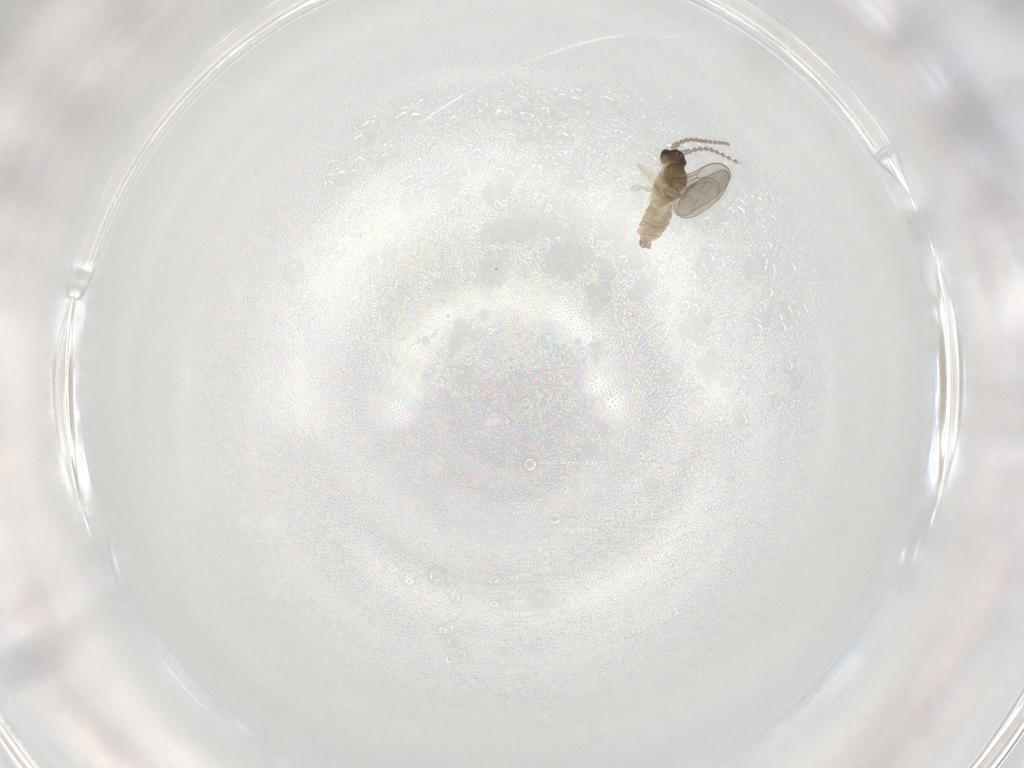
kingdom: Animalia
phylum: Arthropoda
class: Insecta
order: Diptera
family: Cecidomyiidae
